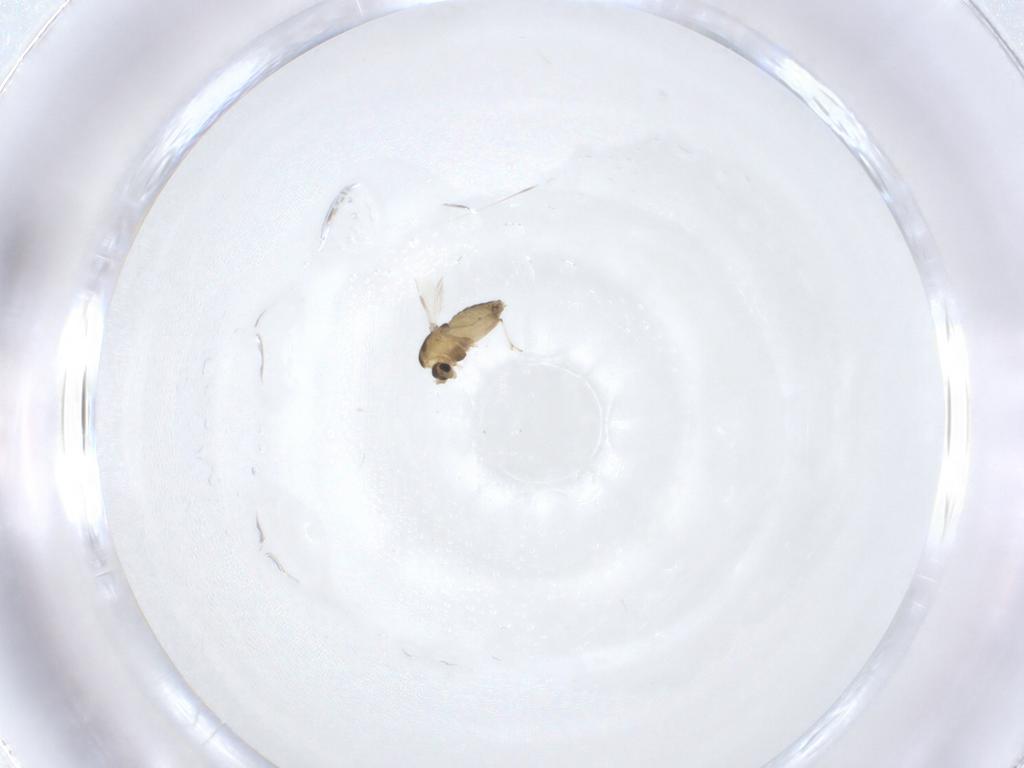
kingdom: Animalia
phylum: Arthropoda
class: Insecta
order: Diptera
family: Chironomidae
